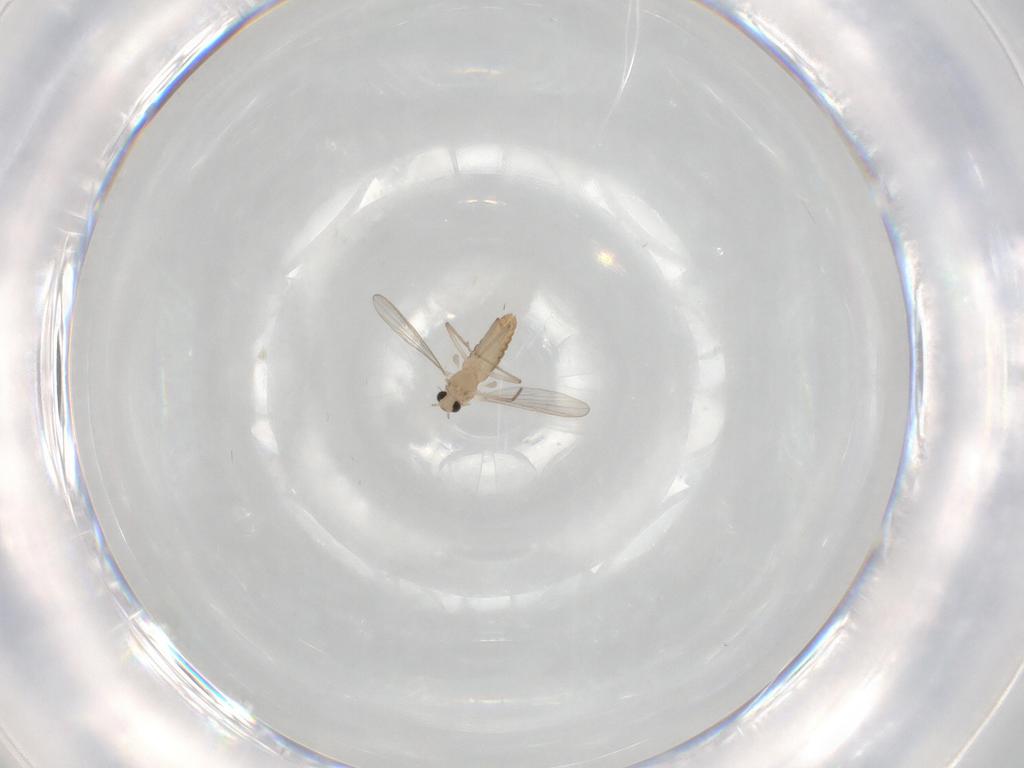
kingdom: Animalia
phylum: Arthropoda
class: Insecta
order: Diptera
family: Chironomidae
